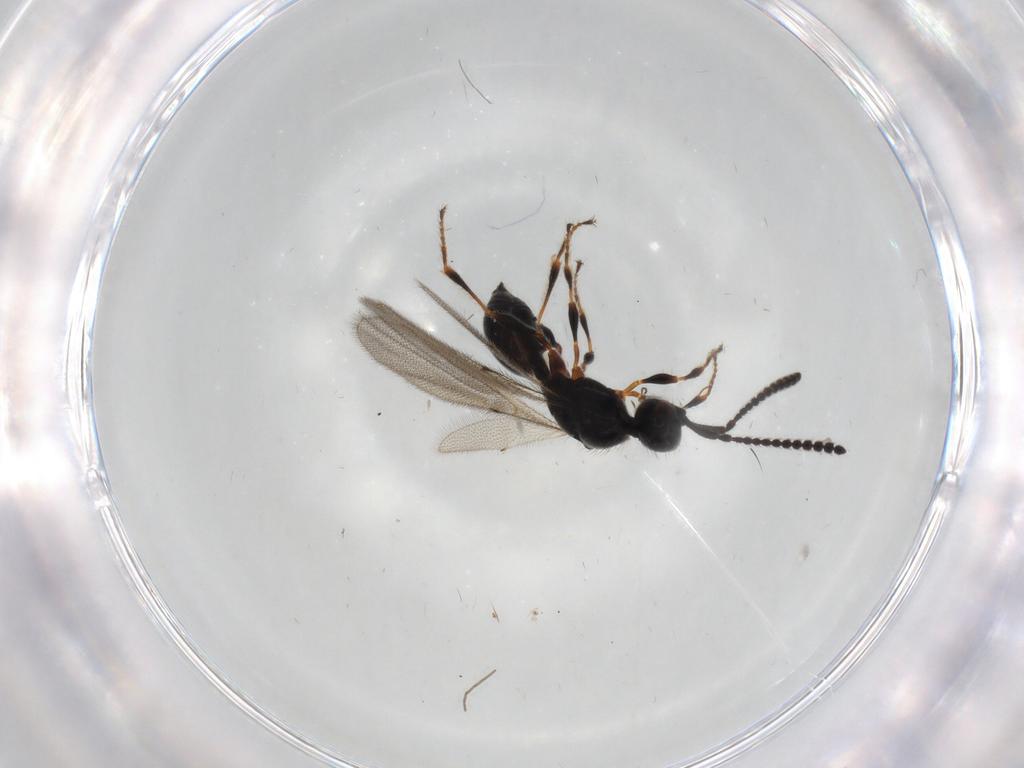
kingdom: Animalia
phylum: Arthropoda
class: Insecta
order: Hymenoptera
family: Diapriidae
